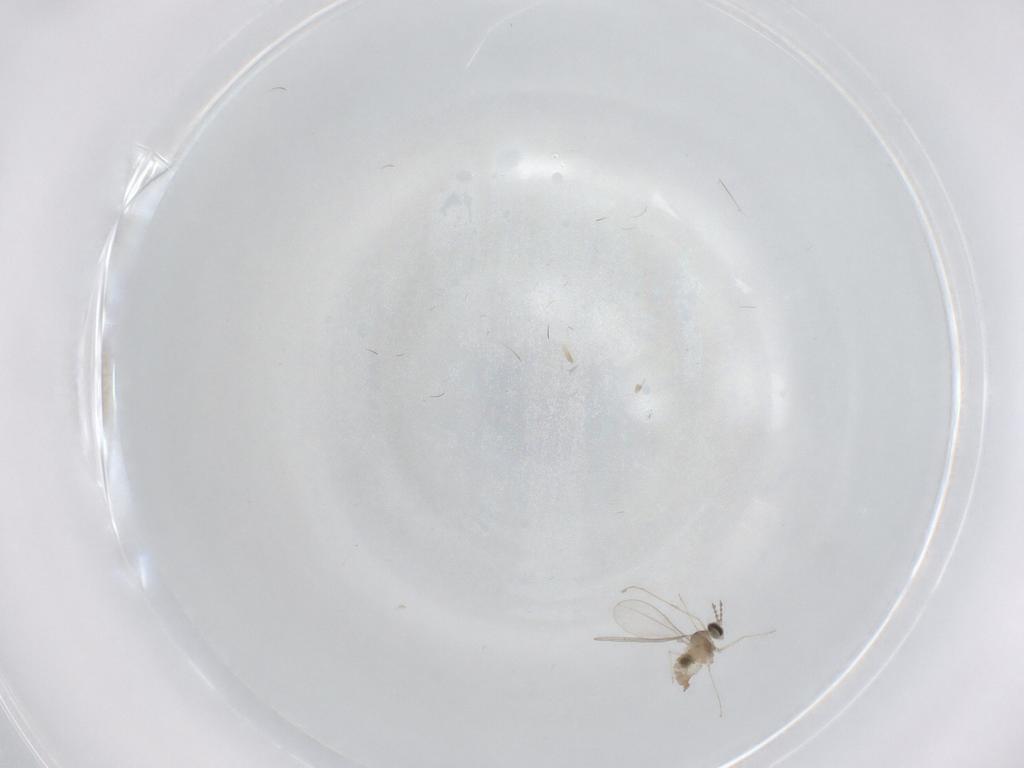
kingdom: Animalia
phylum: Arthropoda
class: Insecta
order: Diptera
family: Cecidomyiidae
